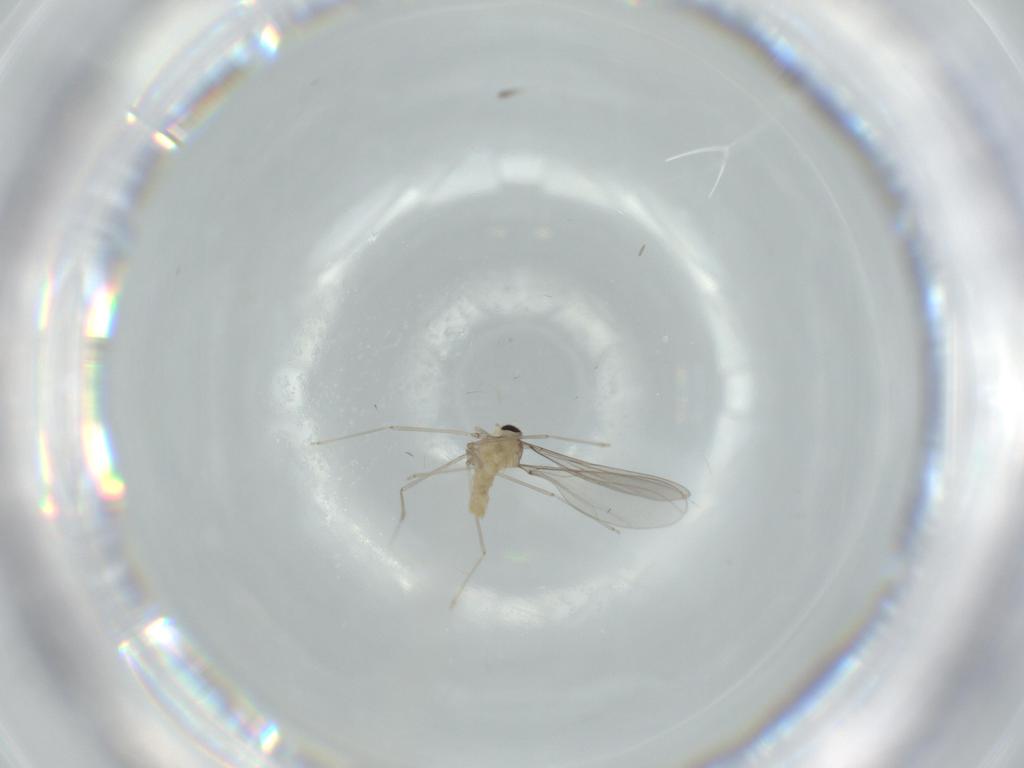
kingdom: Animalia
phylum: Arthropoda
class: Insecta
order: Diptera
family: Cecidomyiidae
